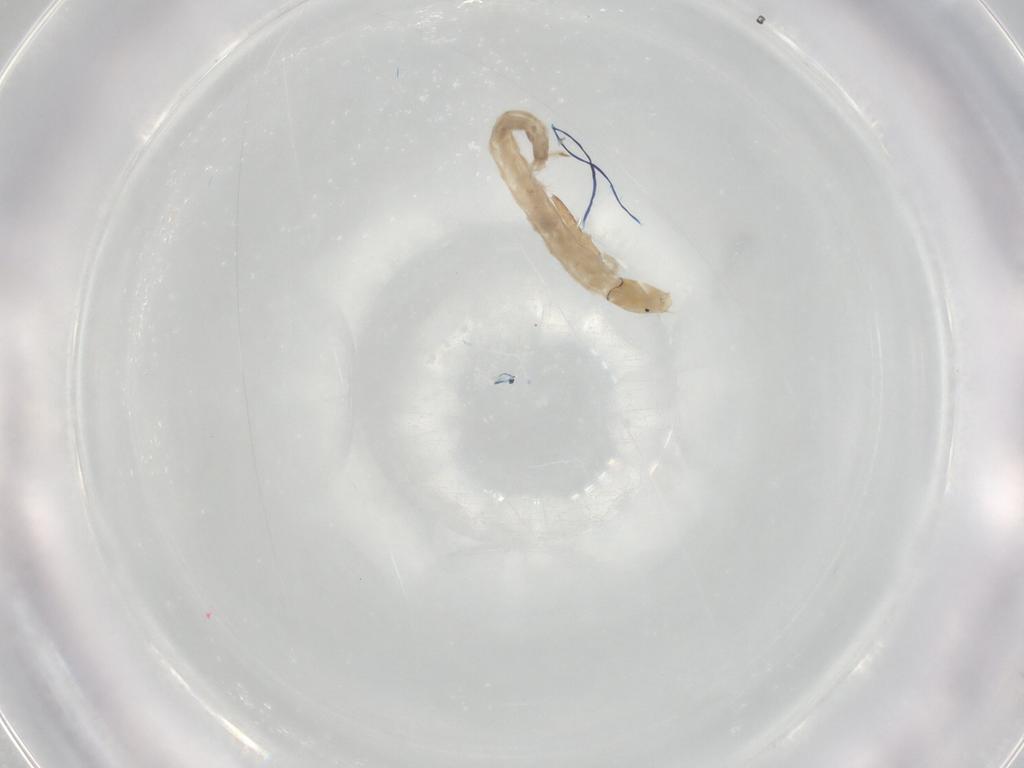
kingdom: Animalia
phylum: Arthropoda
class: Insecta
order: Diptera
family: Chironomidae
